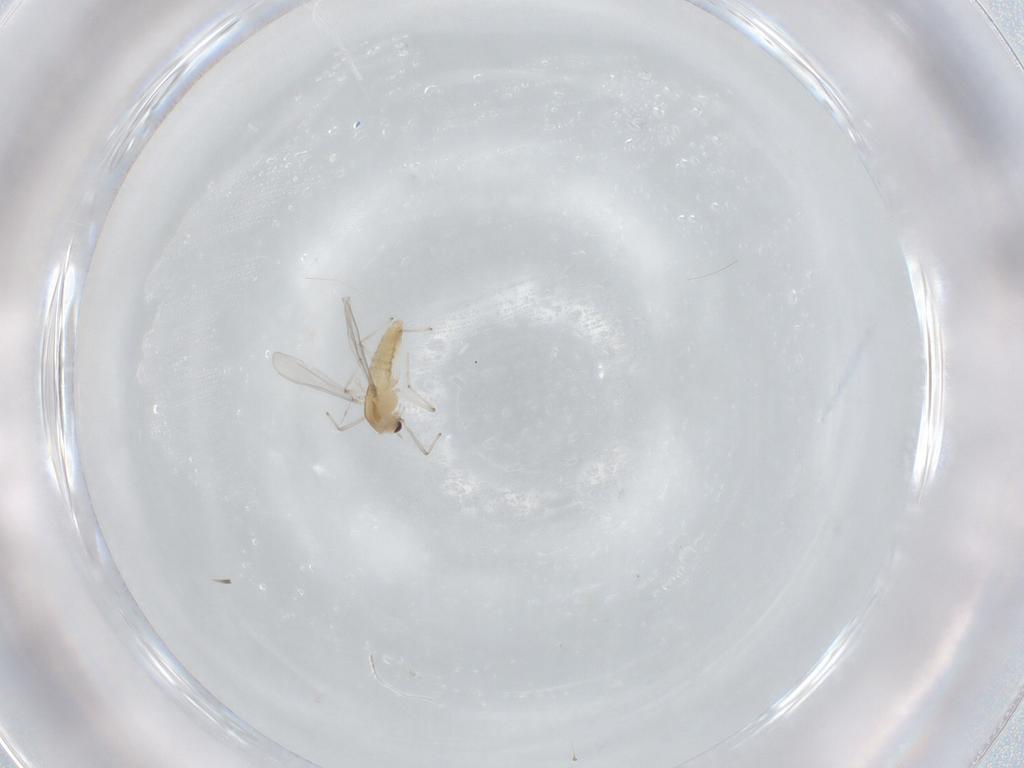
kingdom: Animalia
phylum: Arthropoda
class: Insecta
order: Diptera
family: Chironomidae
